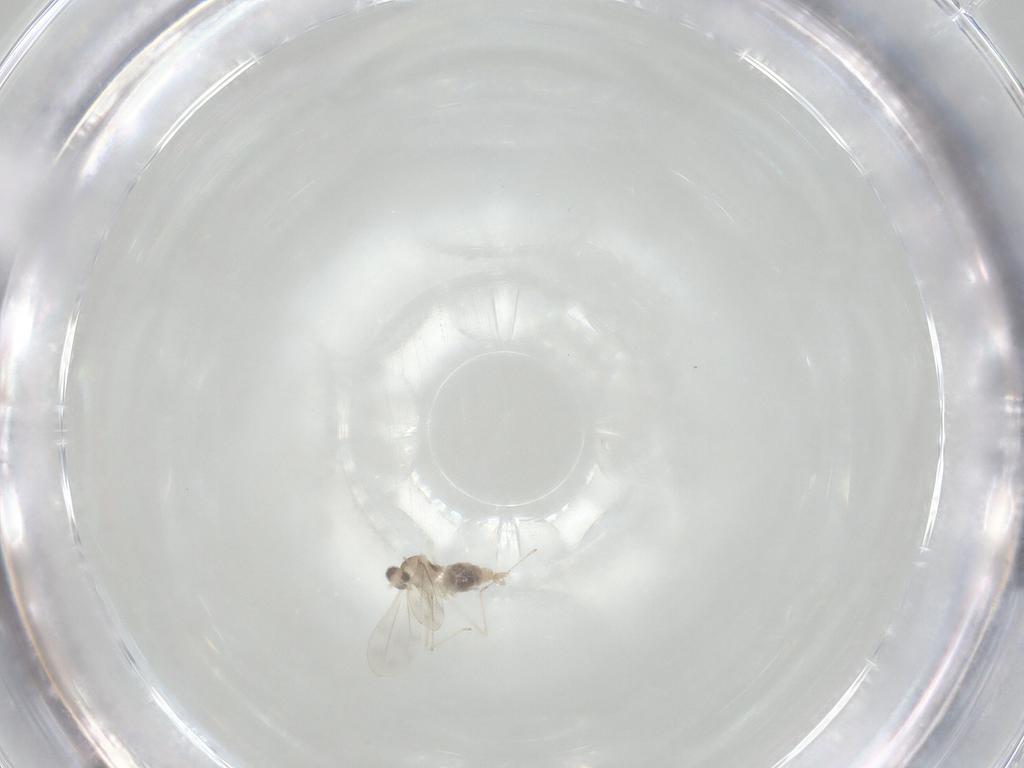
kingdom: Animalia
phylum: Arthropoda
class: Insecta
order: Diptera
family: Cecidomyiidae
